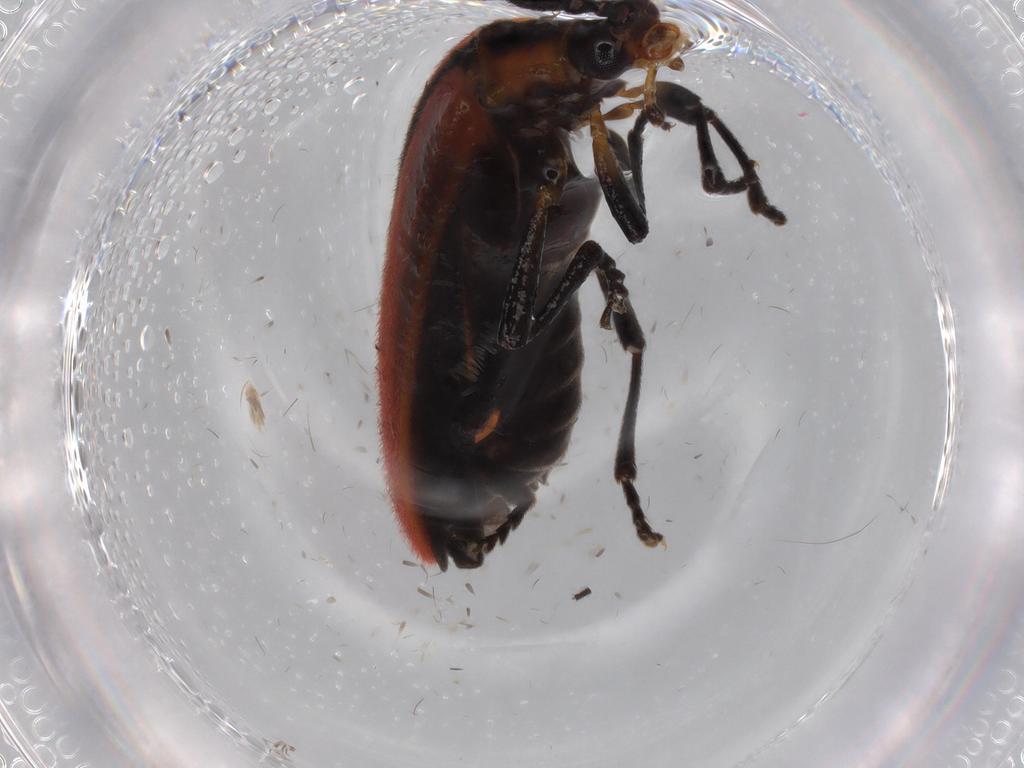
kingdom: Animalia
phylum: Arthropoda
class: Insecta
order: Coleoptera
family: Lycidae
